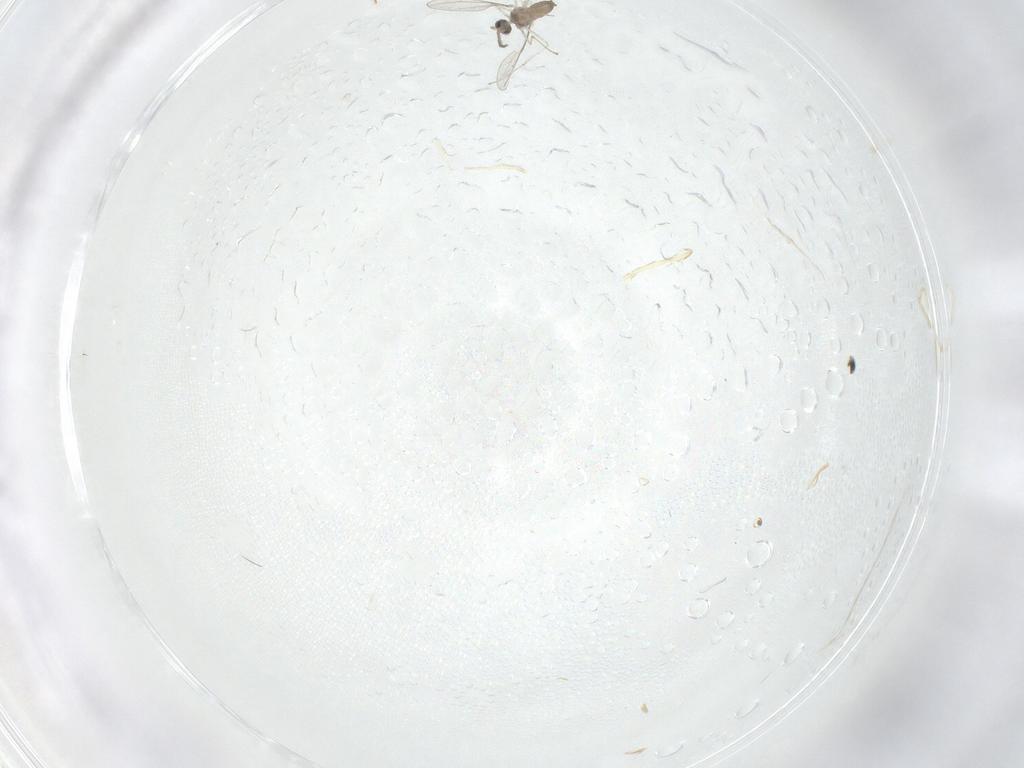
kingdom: Animalia
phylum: Arthropoda
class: Insecta
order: Diptera
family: Cecidomyiidae
